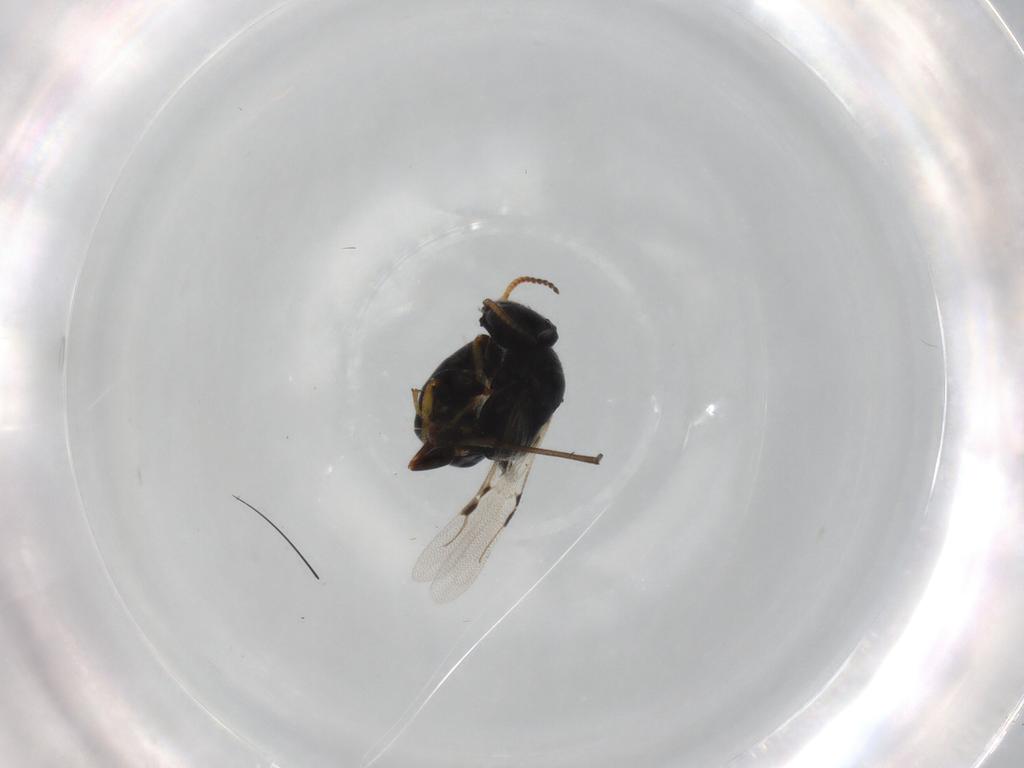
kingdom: Animalia
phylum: Arthropoda
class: Insecta
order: Hymenoptera
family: Bethylidae
